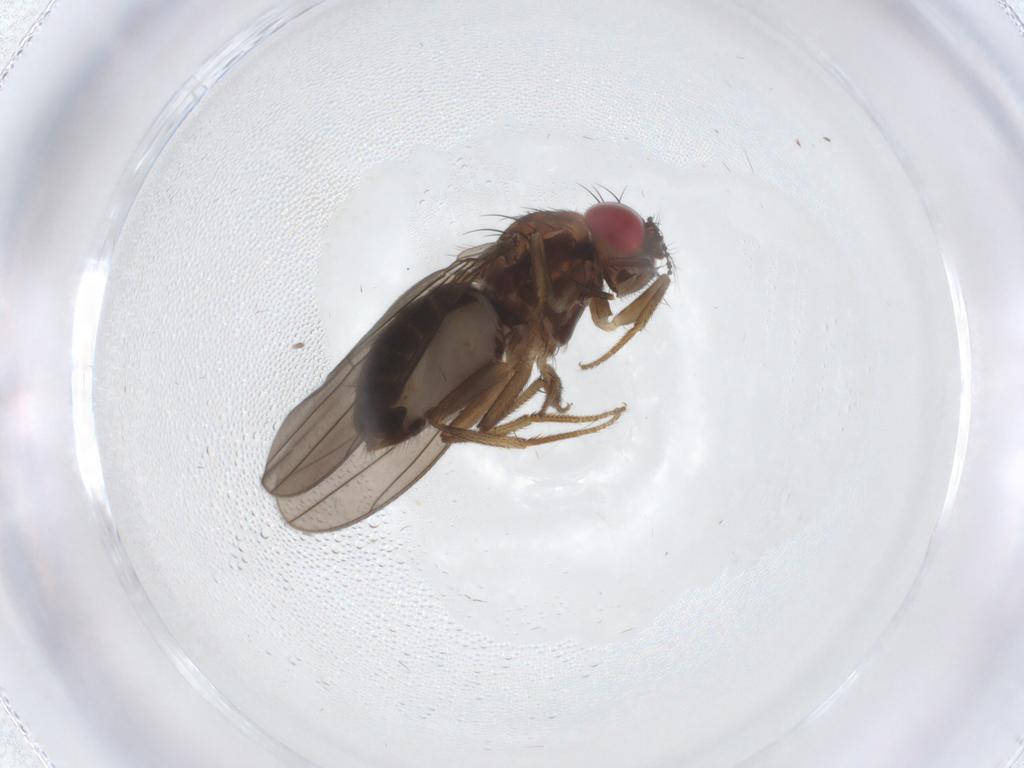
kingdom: Animalia
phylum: Arthropoda
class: Insecta
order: Diptera
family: Drosophilidae
